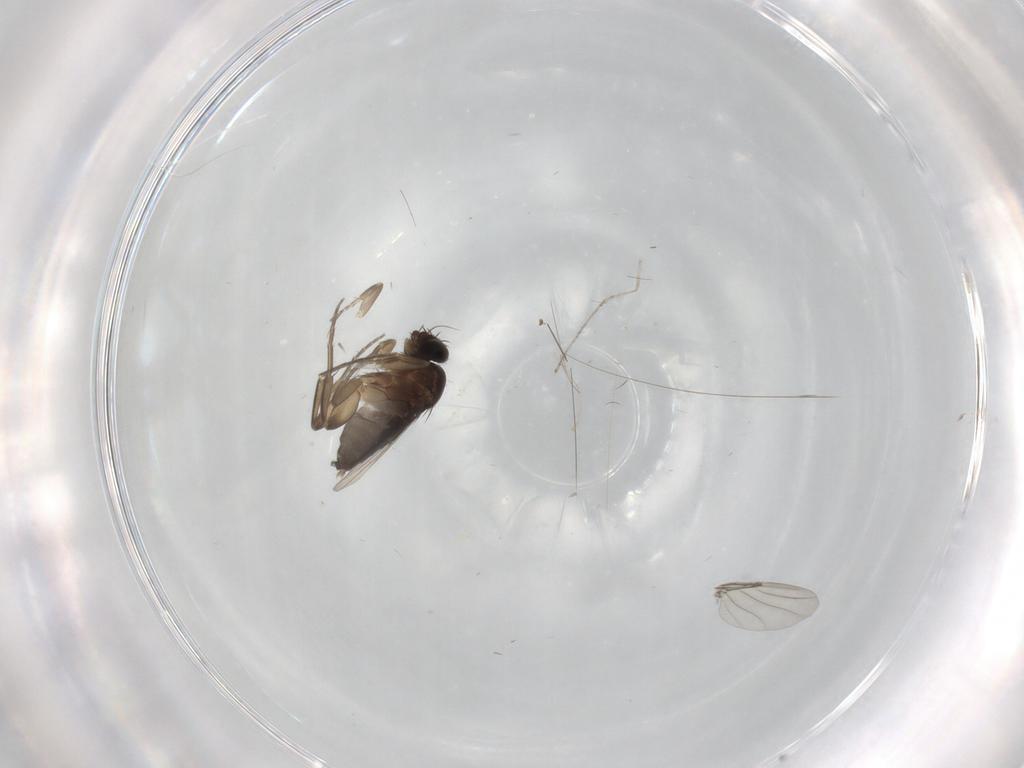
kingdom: Animalia
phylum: Arthropoda
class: Insecta
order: Diptera
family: Phoridae
